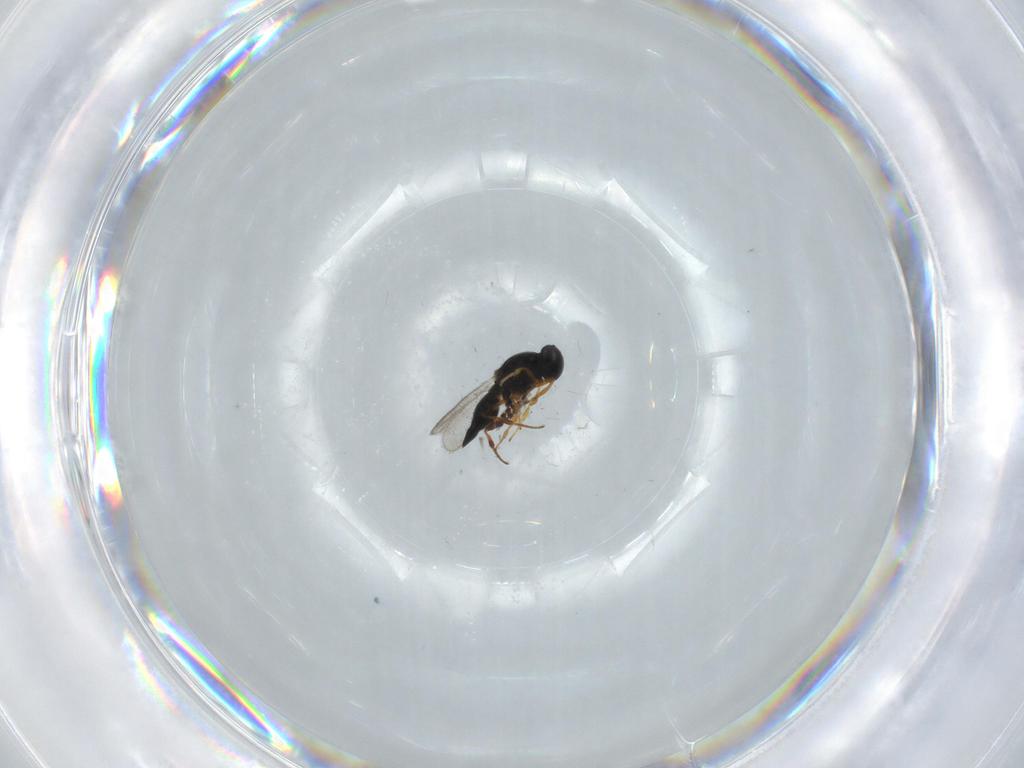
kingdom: Animalia
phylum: Arthropoda
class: Insecta
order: Hymenoptera
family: Platygastridae
